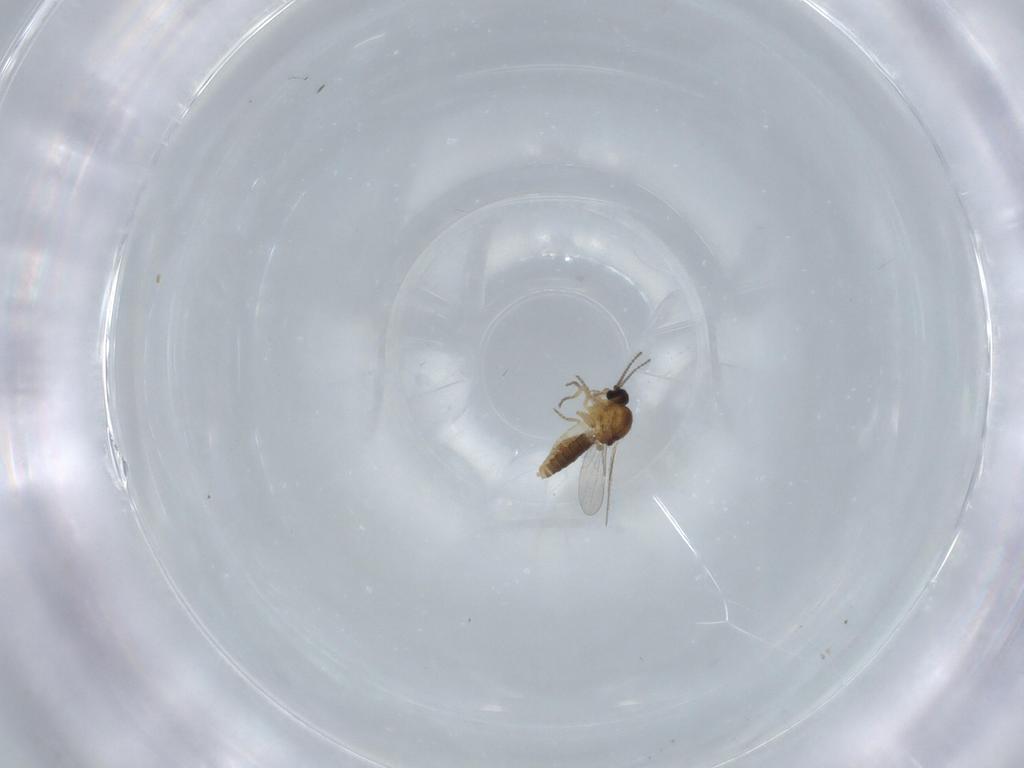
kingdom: Animalia
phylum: Arthropoda
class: Insecta
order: Diptera
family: Ceratopogonidae
